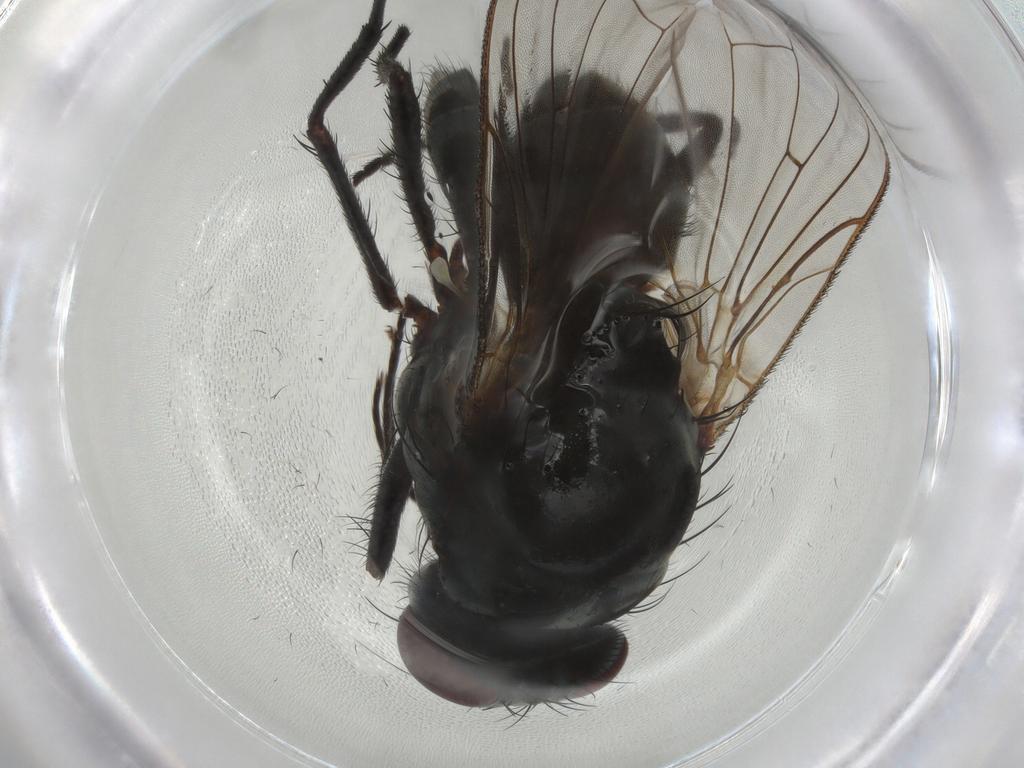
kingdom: Animalia
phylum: Arthropoda
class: Insecta
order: Diptera
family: Anthomyiidae
